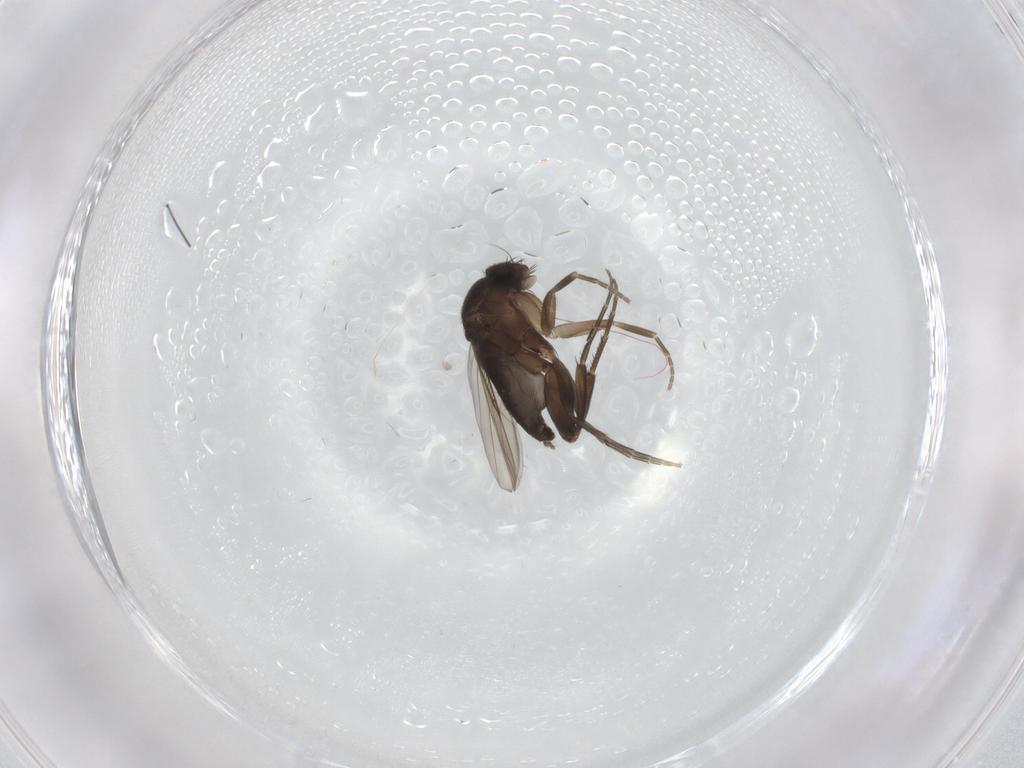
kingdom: Animalia
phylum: Arthropoda
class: Insecta
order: Diptera
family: Phoridae
